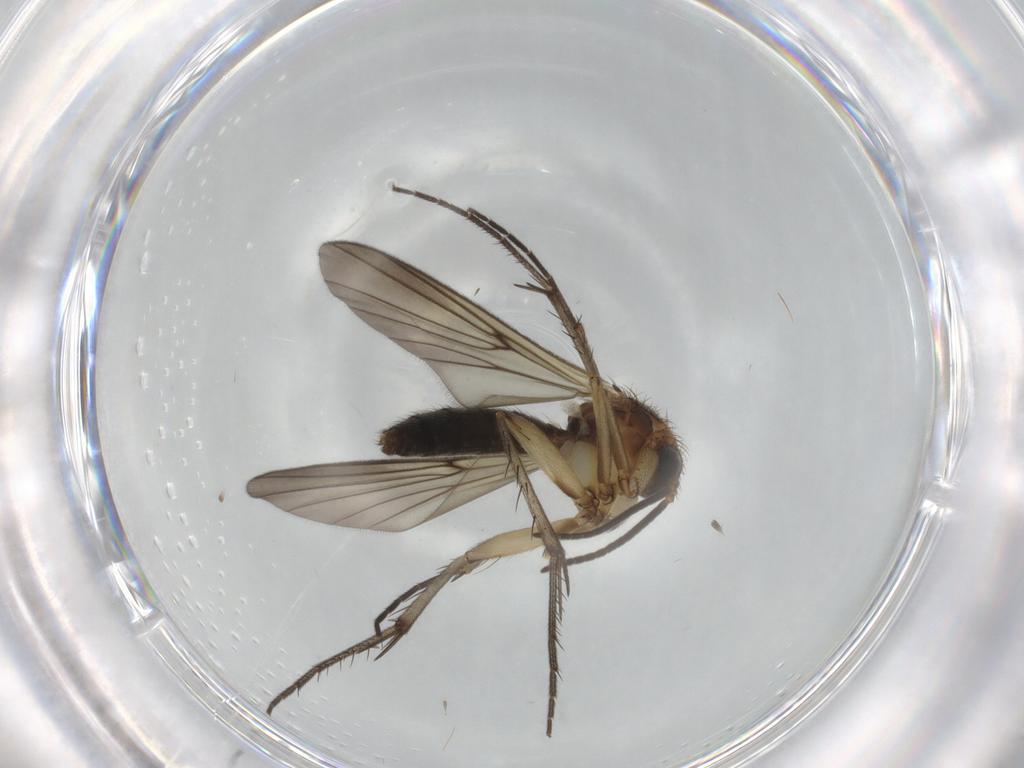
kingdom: Animalia
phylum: Arthropoda
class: Insecta
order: Diptera
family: Mycetophilidae
